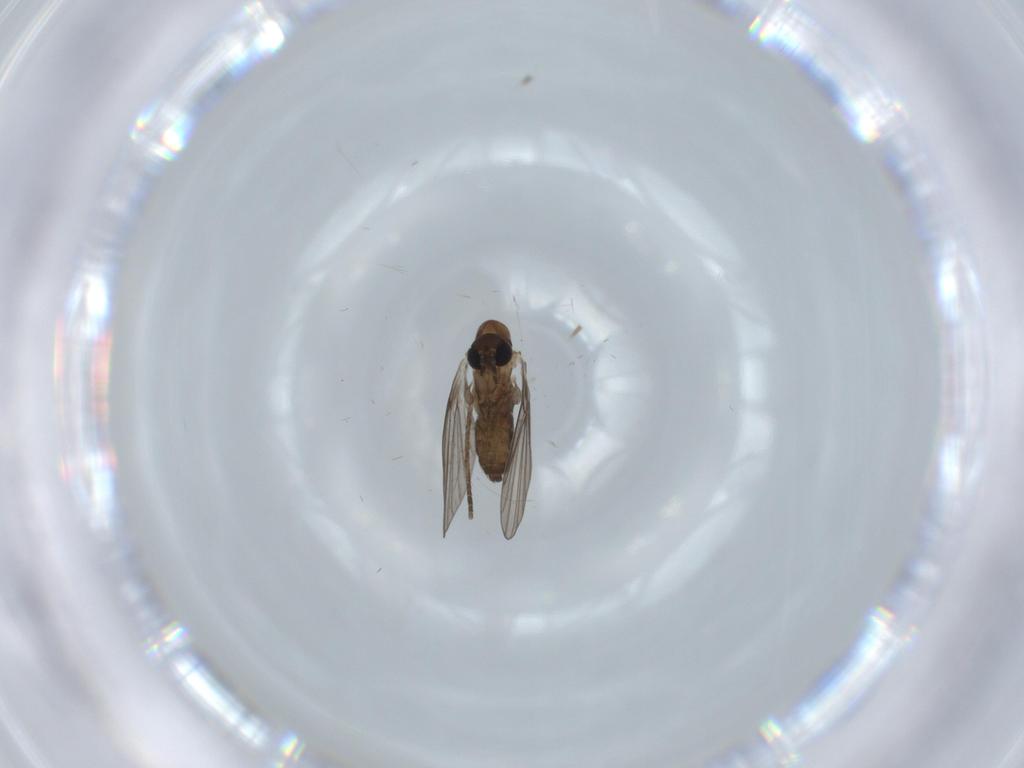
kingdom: Animalia
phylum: Arthropoda
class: Insecta
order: Diptera
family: Psychodidae
